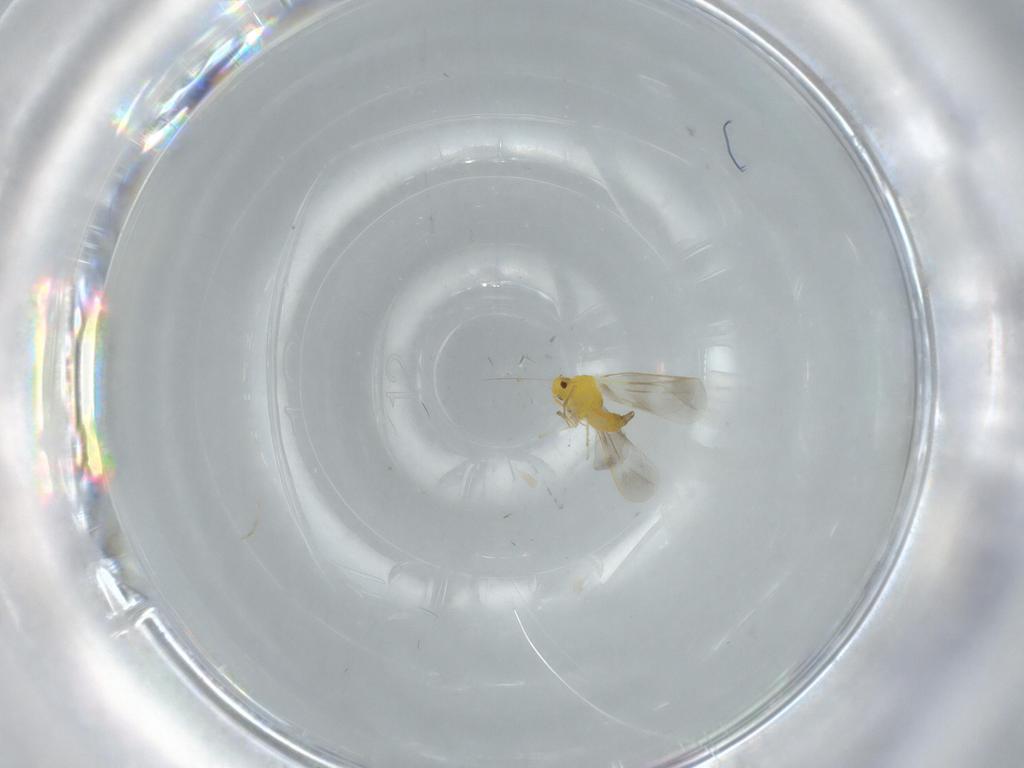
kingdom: Animalia
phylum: Arthropoda
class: Insecta
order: Hemiptera
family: Aleyrodidae
